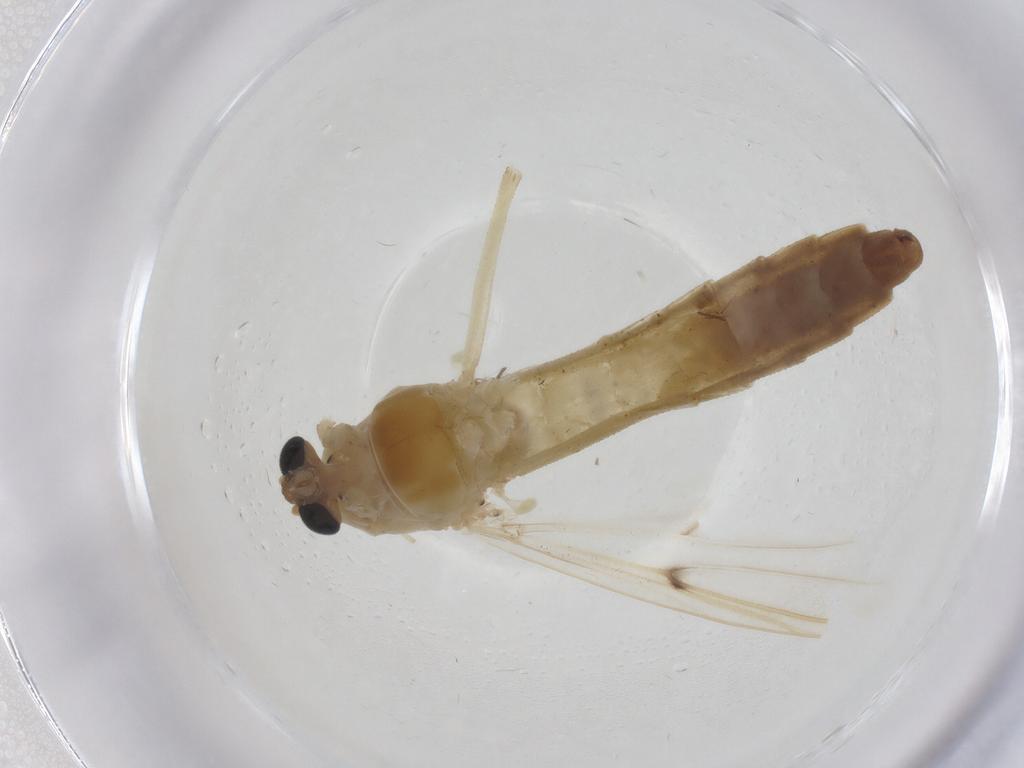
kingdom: Animalia
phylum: Arthropoda
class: Insecta
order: Diptera
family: Chironomidae
